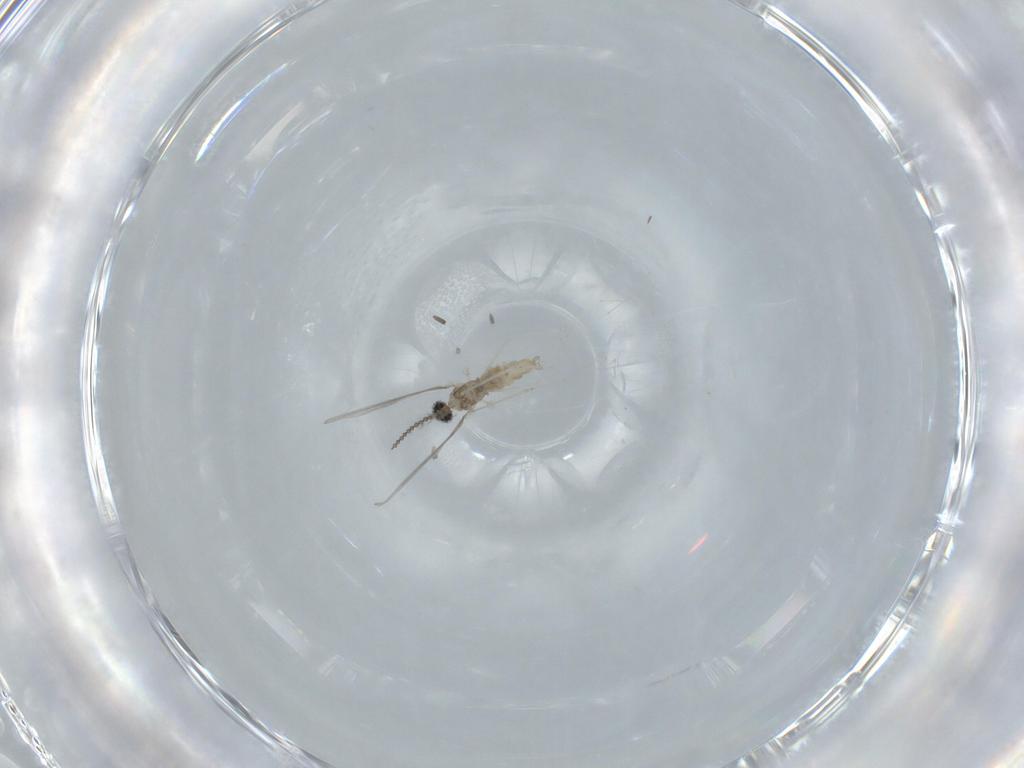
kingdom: Animalia
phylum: Arthropoda
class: Insecta
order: Diptera
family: Cecidomyiidae
